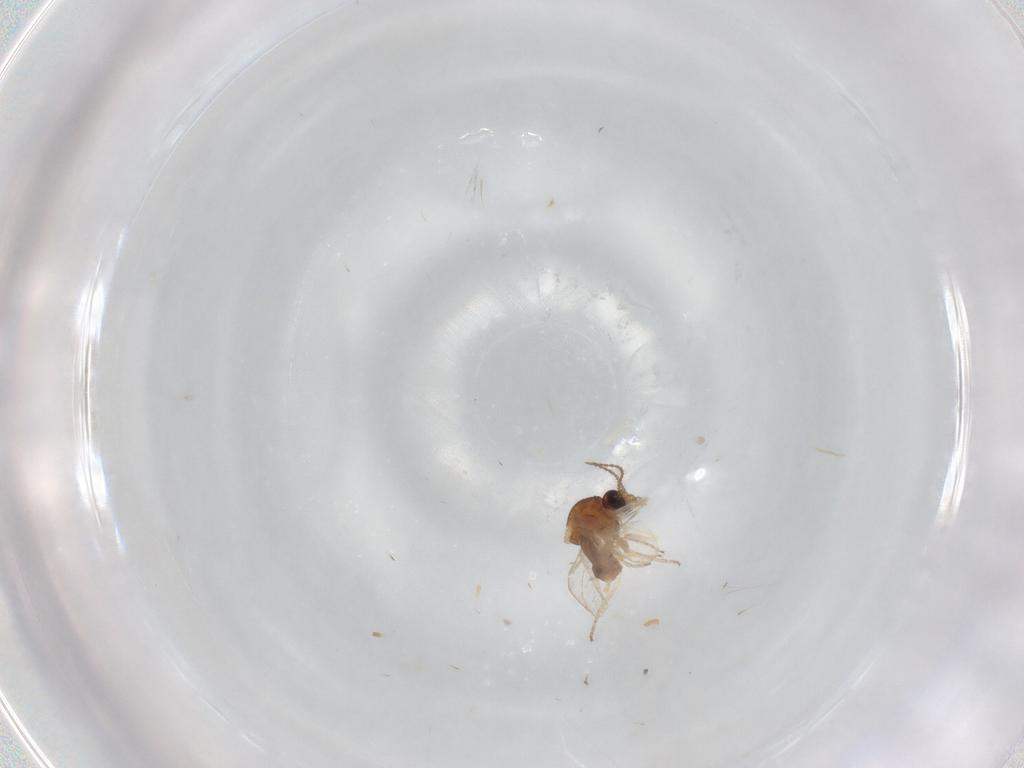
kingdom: Animalia
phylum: Arthropoda
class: Insecta
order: Diptera
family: Ceratopogonidae
